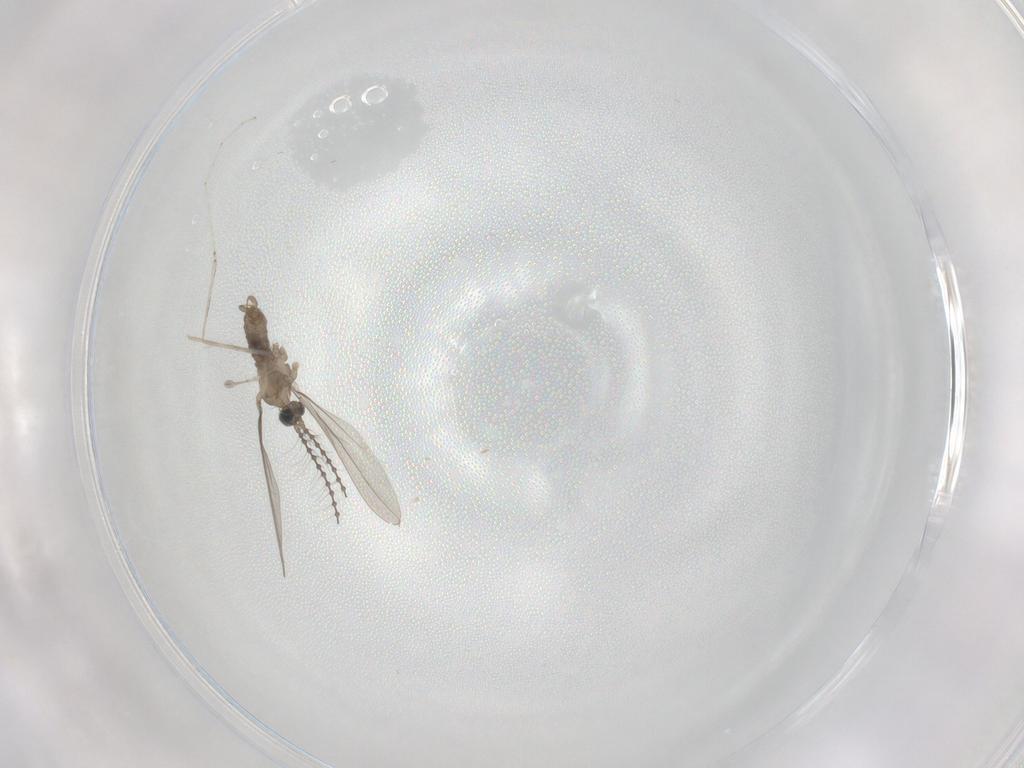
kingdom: Animalia
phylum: Arthropoda
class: Insecta
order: Diptera
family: Cecidomyiidae
